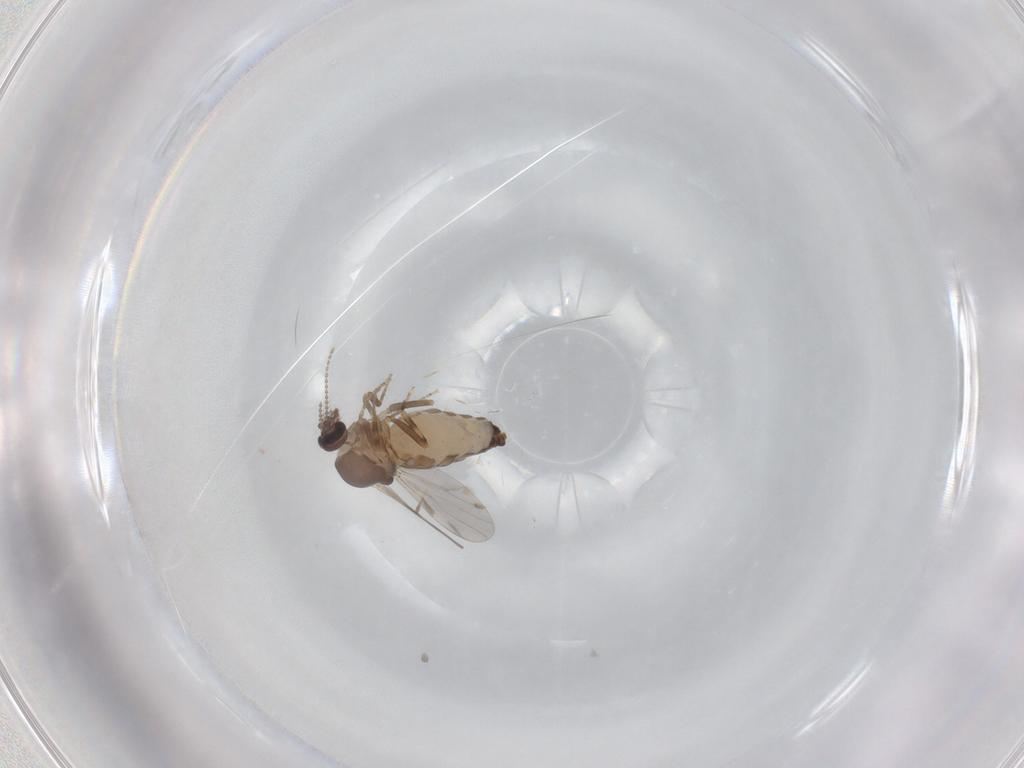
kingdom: Animalia
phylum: Arthropoda
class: Insecta
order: Diptera
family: Ceratopogonidae
